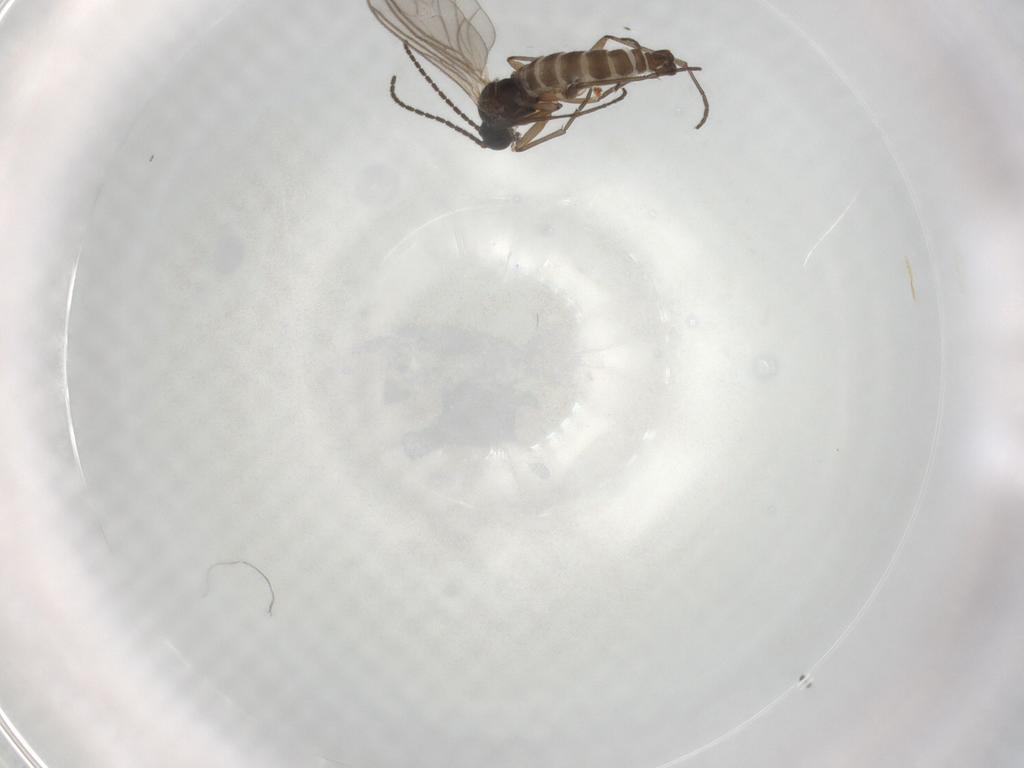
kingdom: Animalia
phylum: Arthropoda
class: Insecta
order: Diptera
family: Sciaridae
